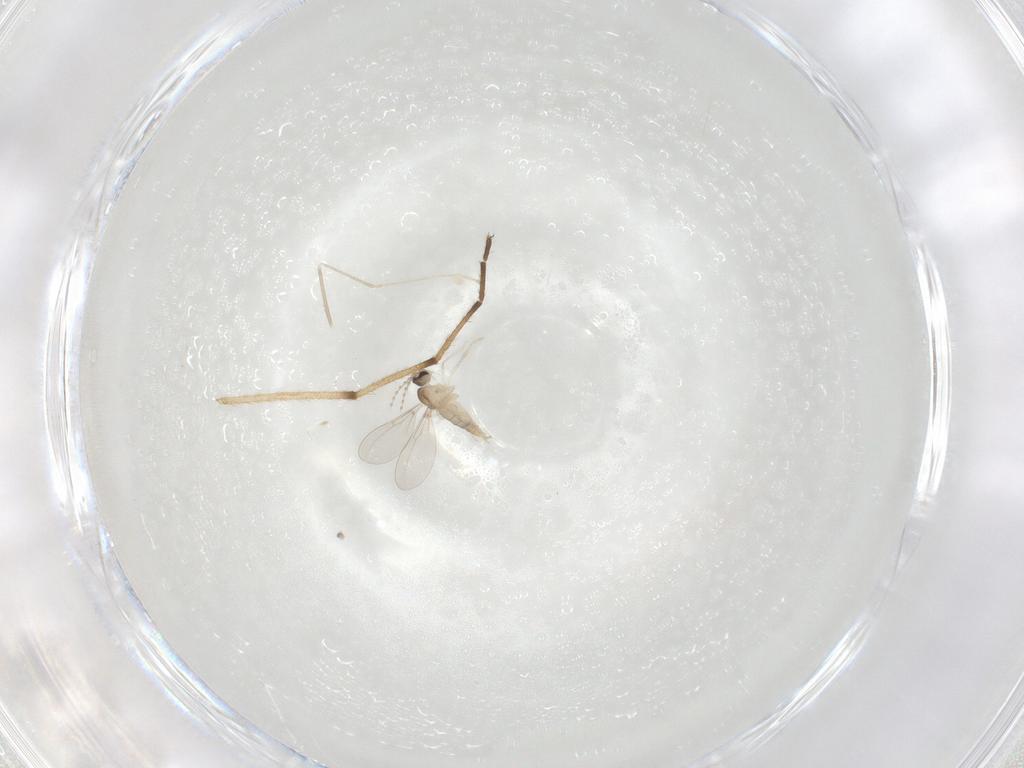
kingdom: Animalia
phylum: Arthropoda
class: Insecta
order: Diptera
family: Cecidomyiidae
